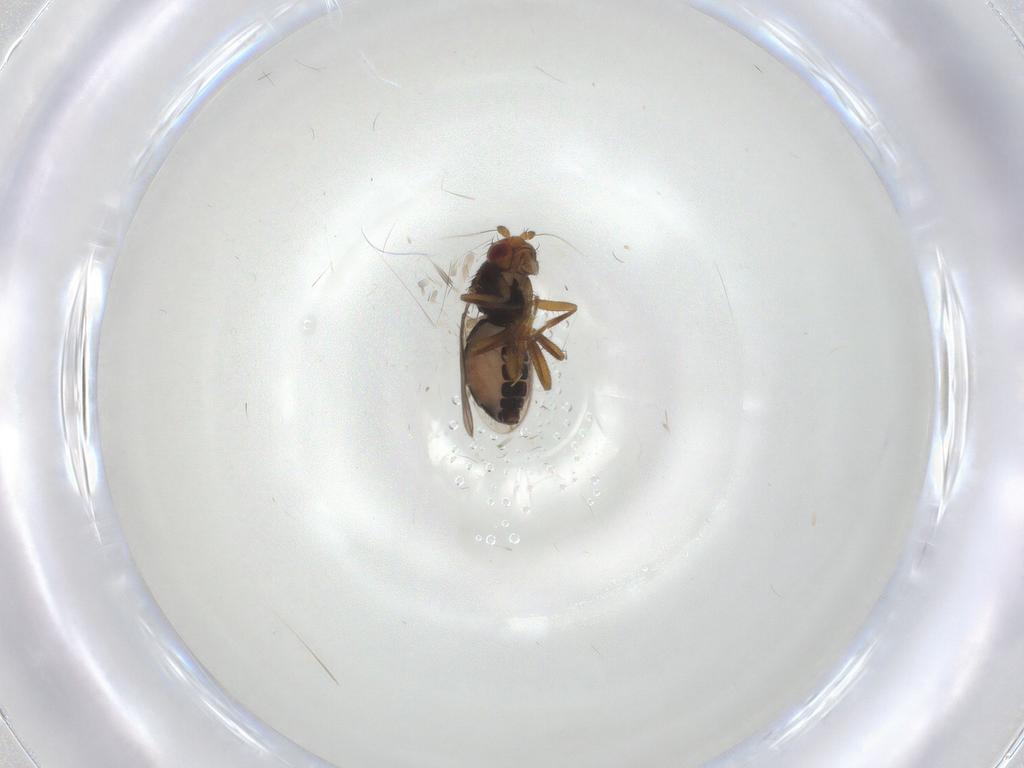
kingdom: Animalia
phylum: Arthropoda
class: Insecta
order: Diptera
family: Sphaeroceridae
